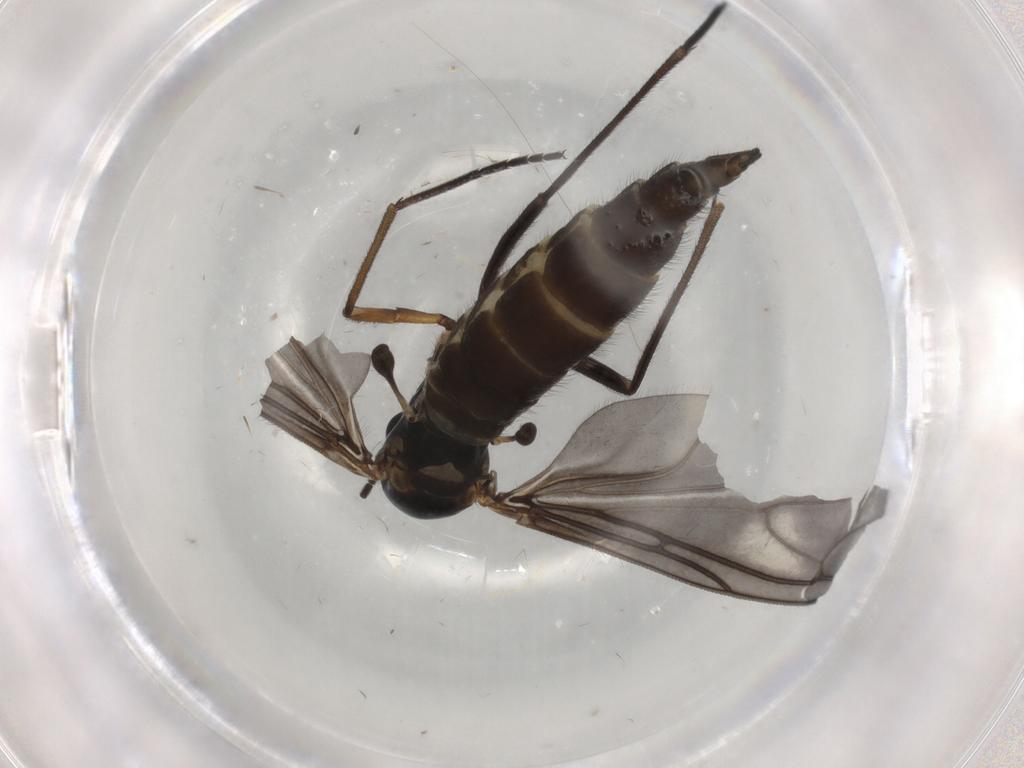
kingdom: Animalia
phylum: Arthropoda
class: Insecta
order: Diptera
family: Sciaridae
